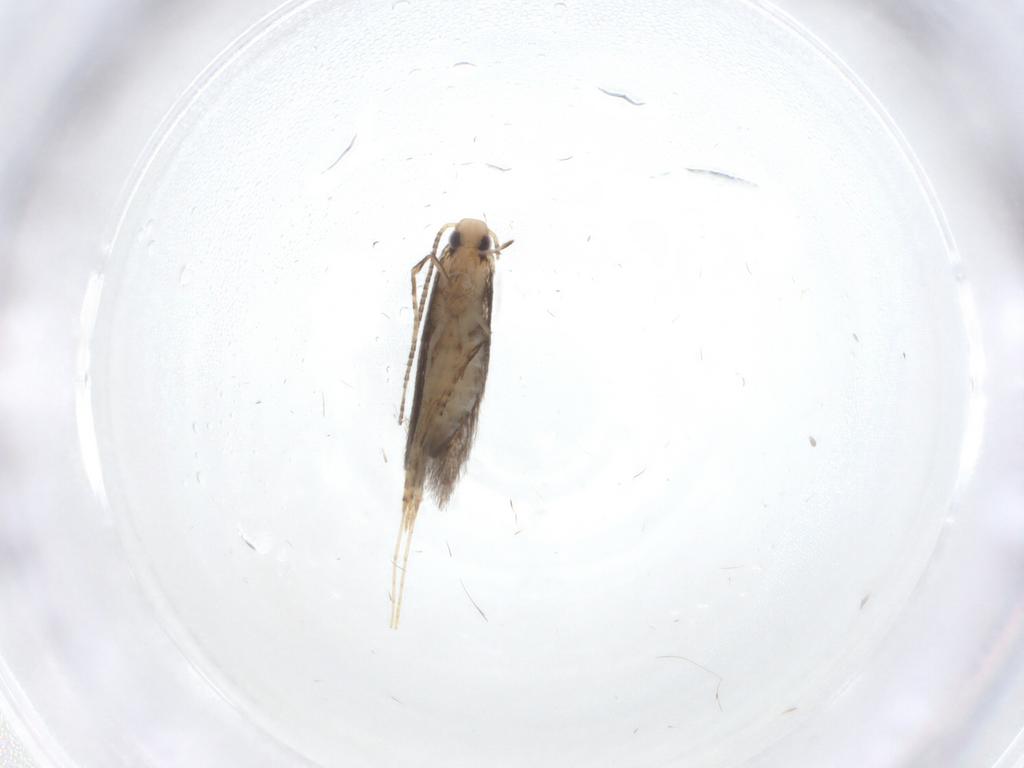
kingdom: Animalia
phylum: Arthropoda
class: Insecta
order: Lepidoptera
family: Gracillariidae
